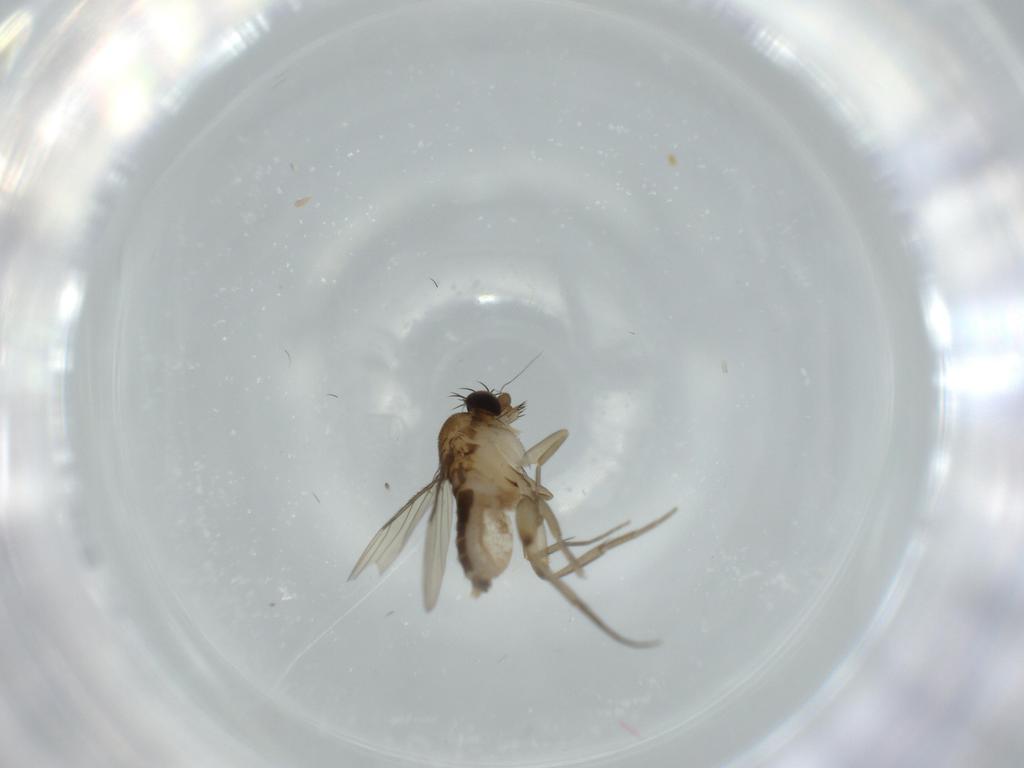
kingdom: Animalia
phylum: Arthropoda
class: Insecta
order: Diptera
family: Phoridae
